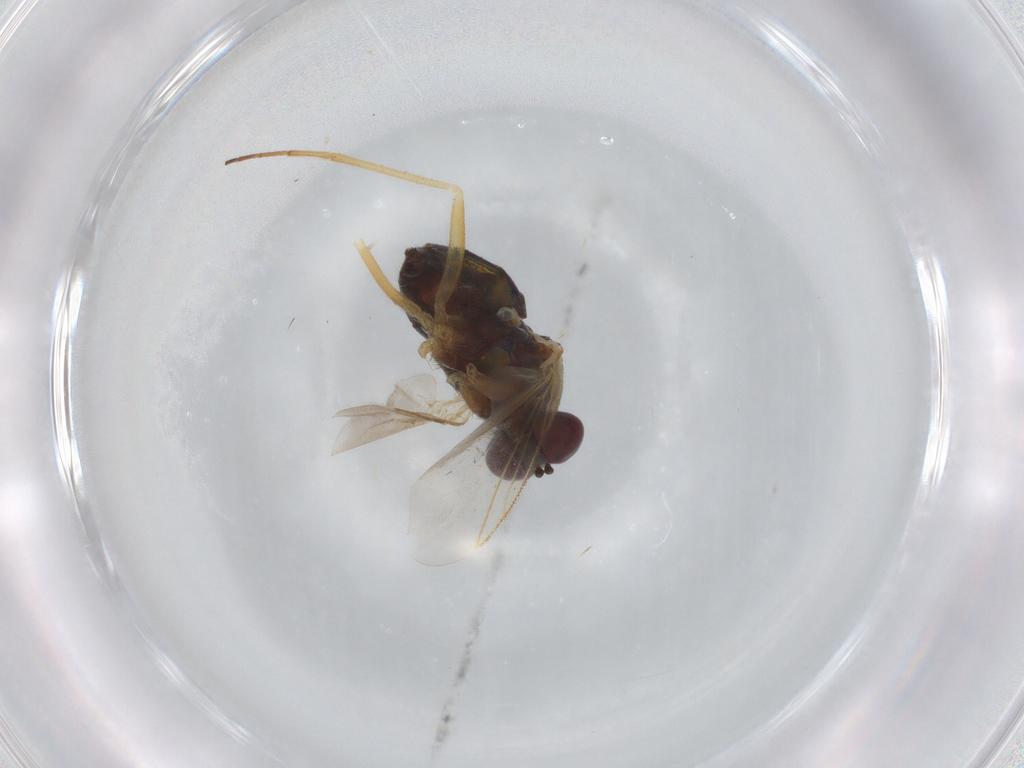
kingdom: Animalia
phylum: Arthropoda
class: Insecta
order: Diptera
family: Dolichopodidae
